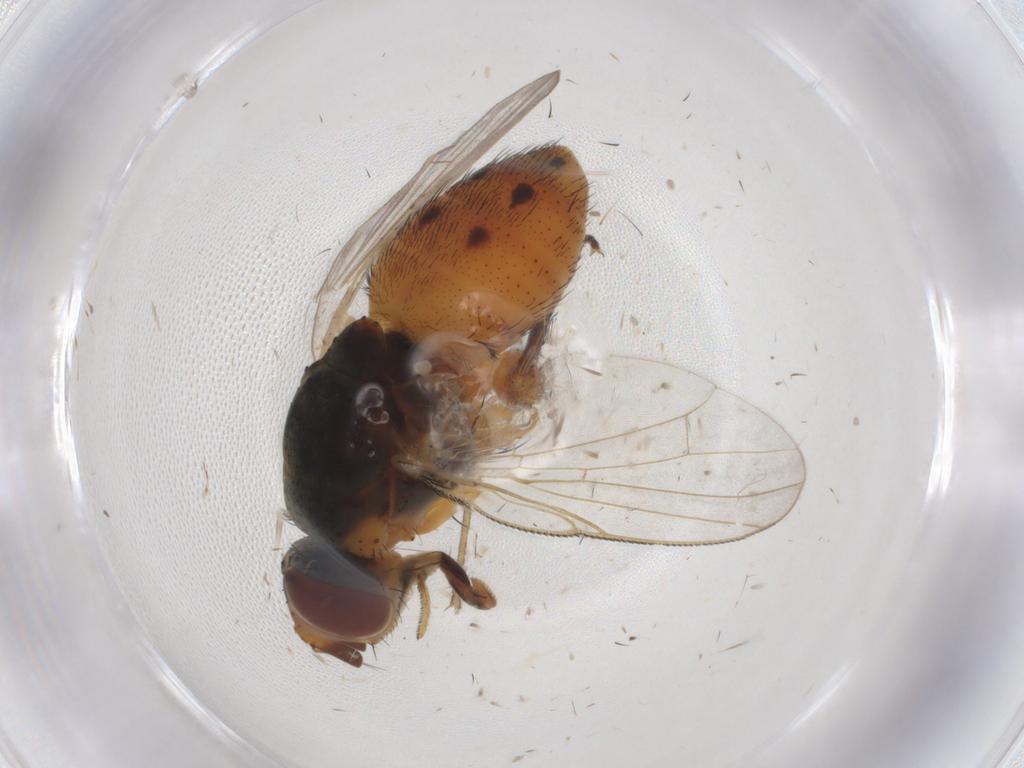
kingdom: Animalia
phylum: Arthropoda
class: Insecta
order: Diptera
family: Muscidae
